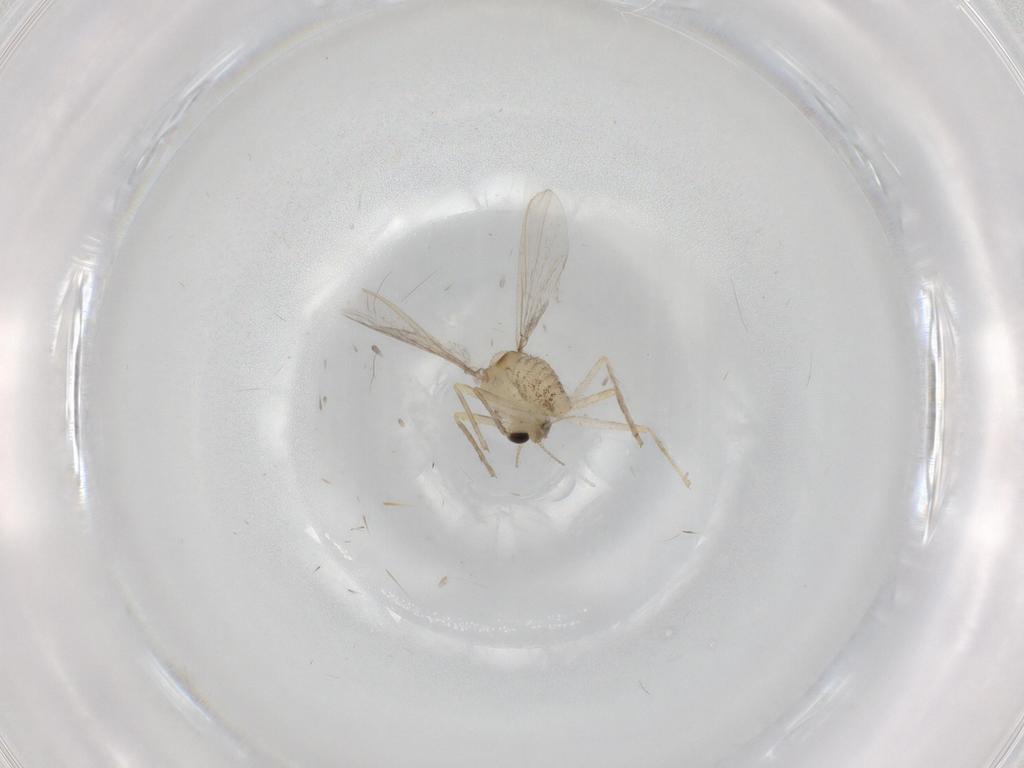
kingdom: Animalia
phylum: Arthropoda
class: Insecta
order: Diptera
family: Chironomidae
